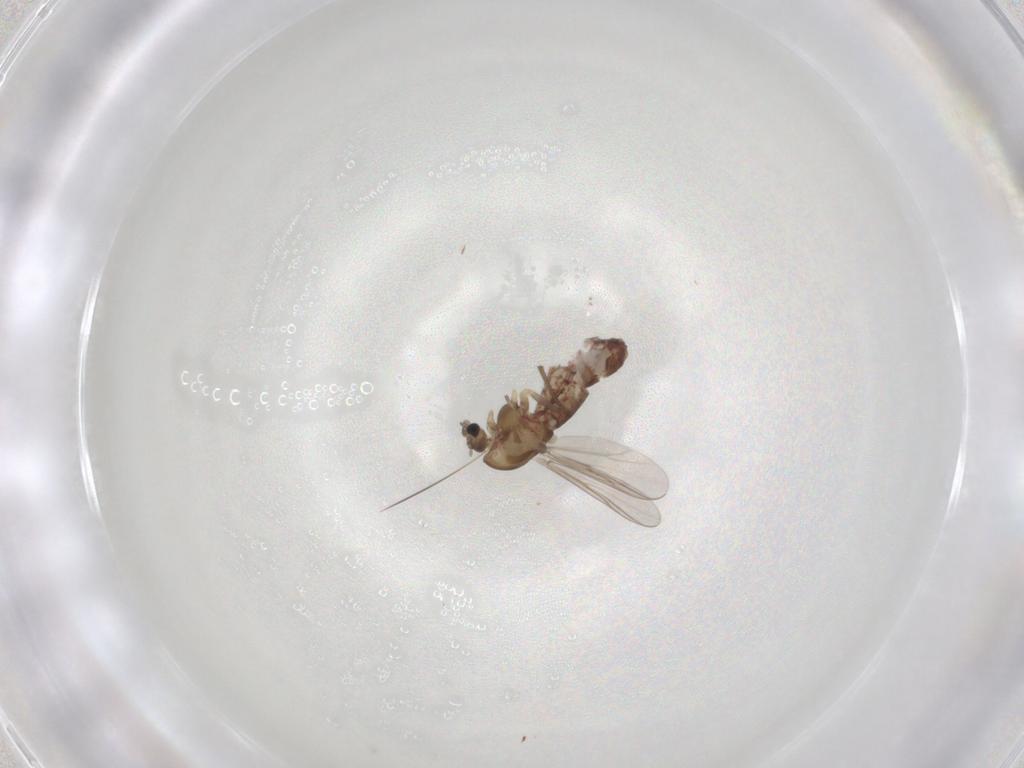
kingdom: Animalia
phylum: Arthropoda
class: Insecta
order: Diptera
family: Chironomidae
